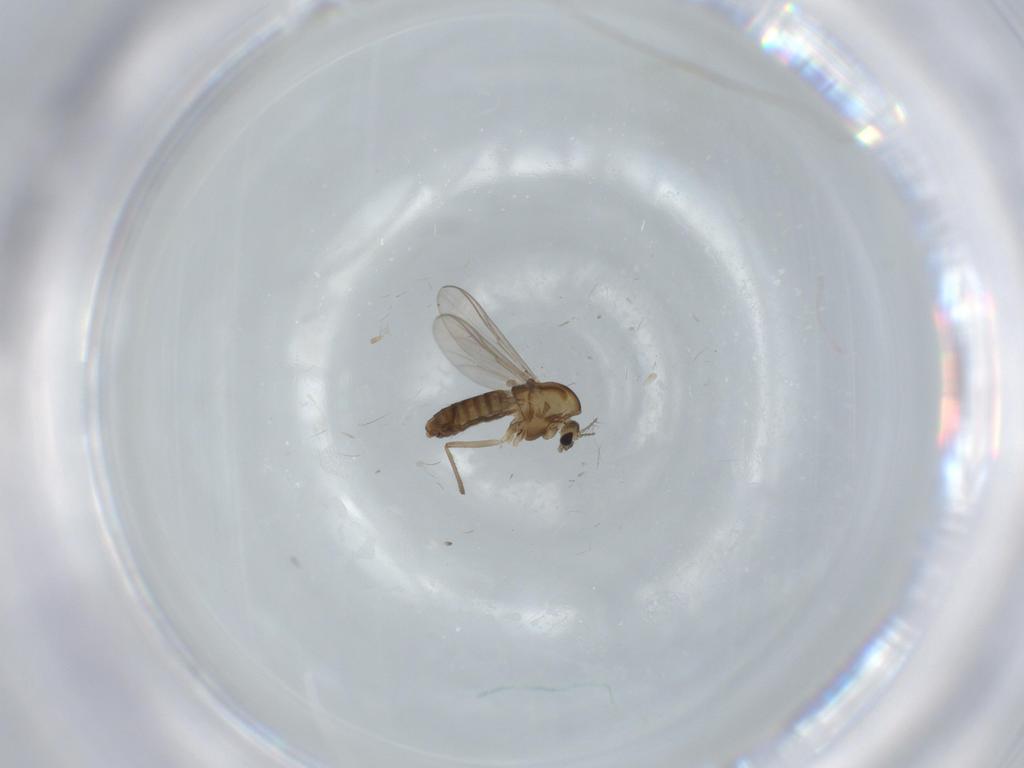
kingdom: Animalia
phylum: Arthropoda
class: Insecta
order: Diptera
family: Chironomidae
